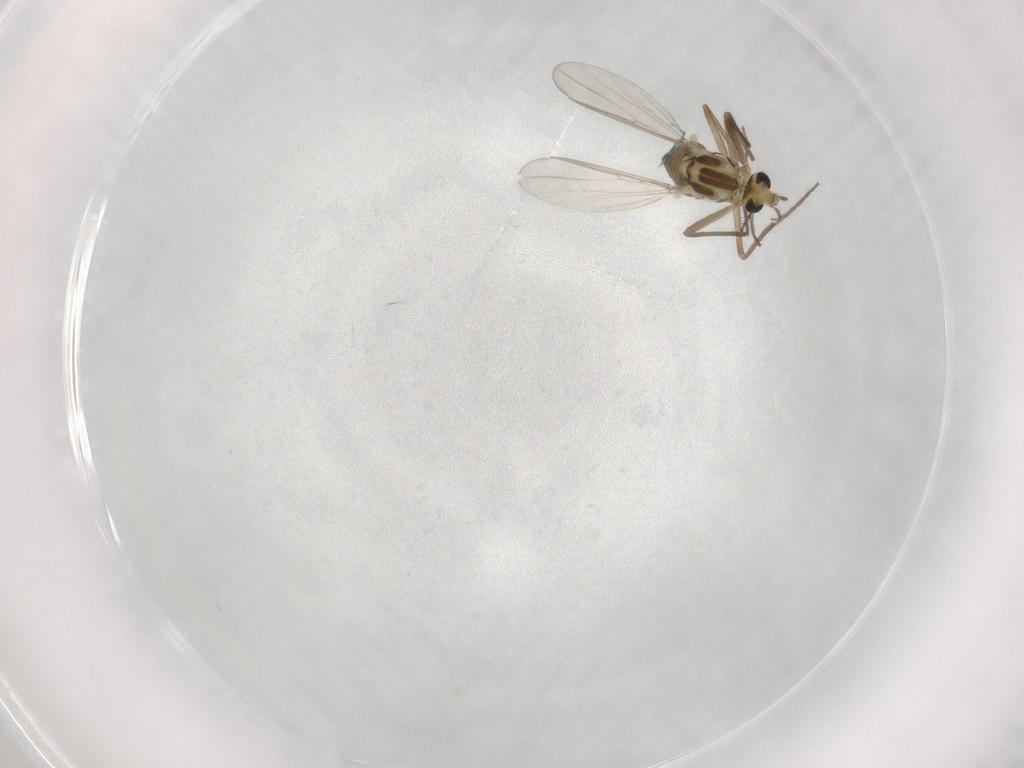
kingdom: Animalia
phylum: Arthropoda
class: Insecta
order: Diptera
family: Chironomidae
